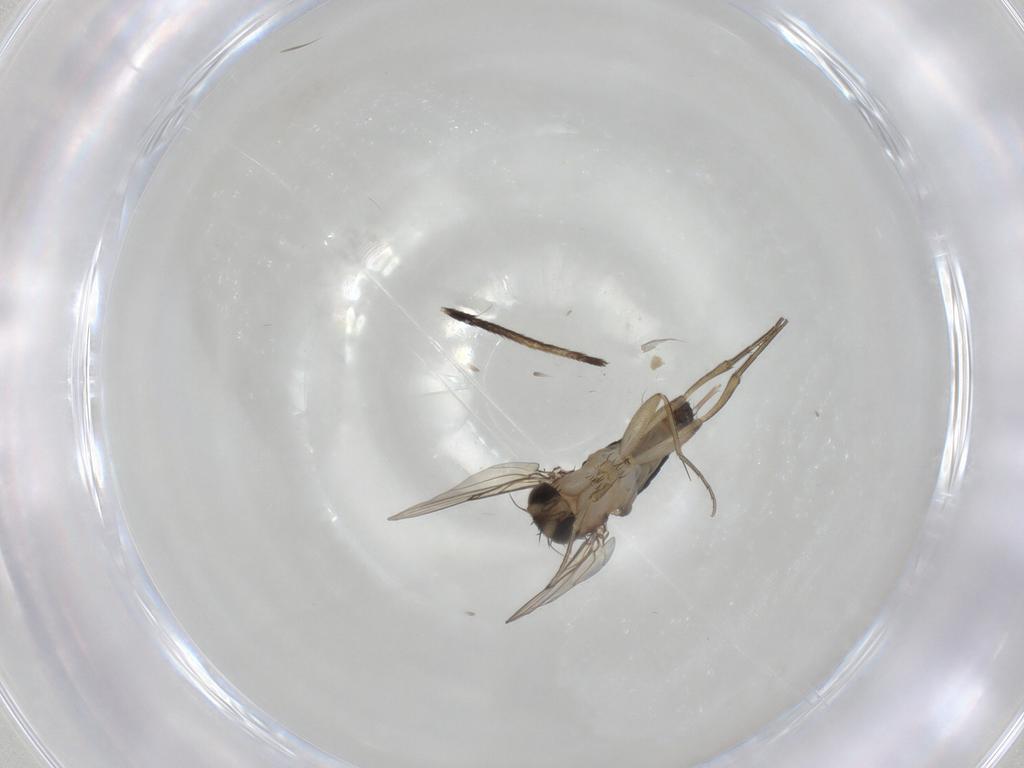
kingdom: Animalia
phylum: Arthropoda
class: Insecta
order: Diptera
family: Phoridae
